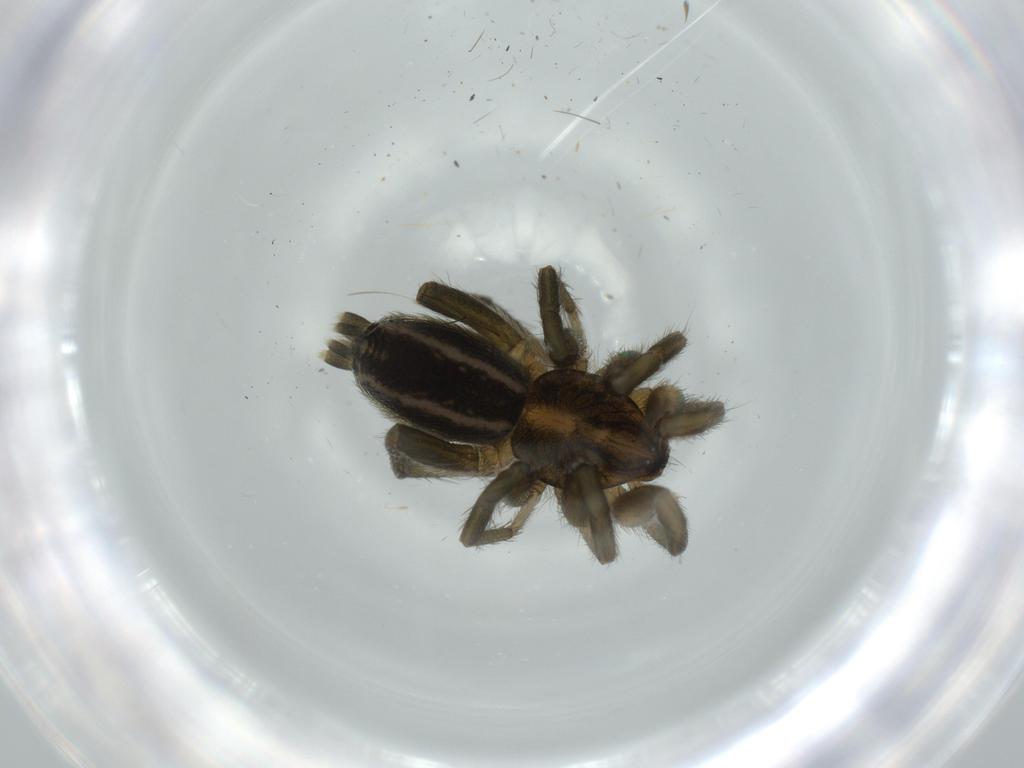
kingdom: Animalia
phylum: Arthropoda
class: Arachnida
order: Araneae
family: Gnaphosidae
